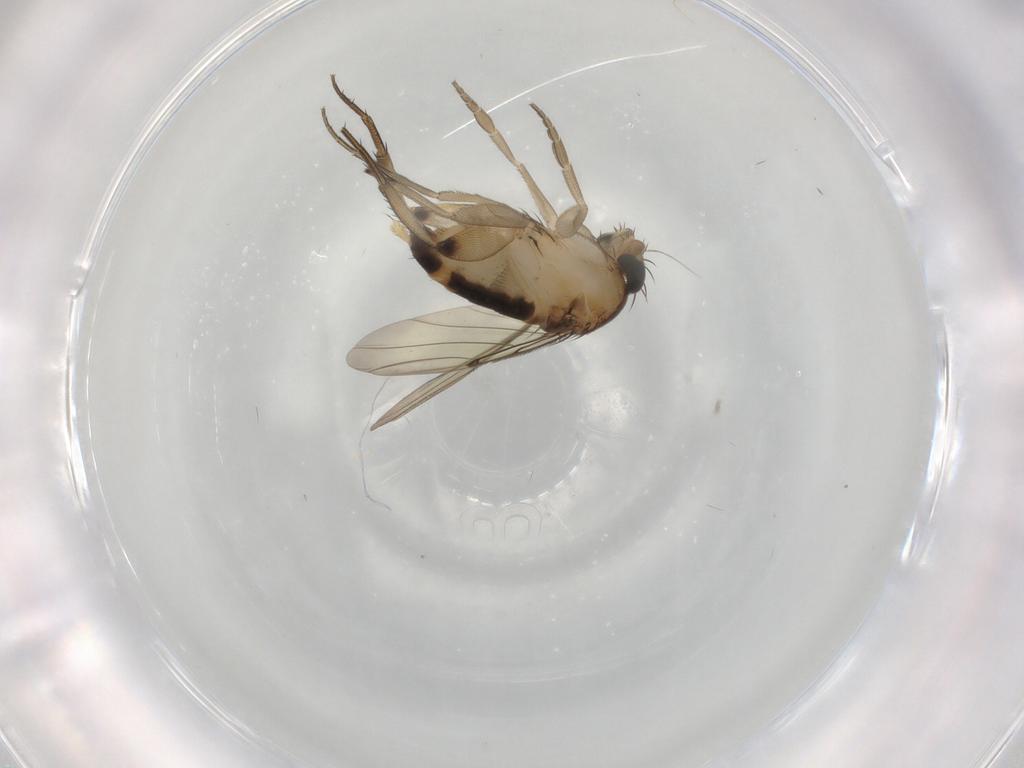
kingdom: Animalia
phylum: Arthropoda
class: Insecta
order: Diptera
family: Phoridae
